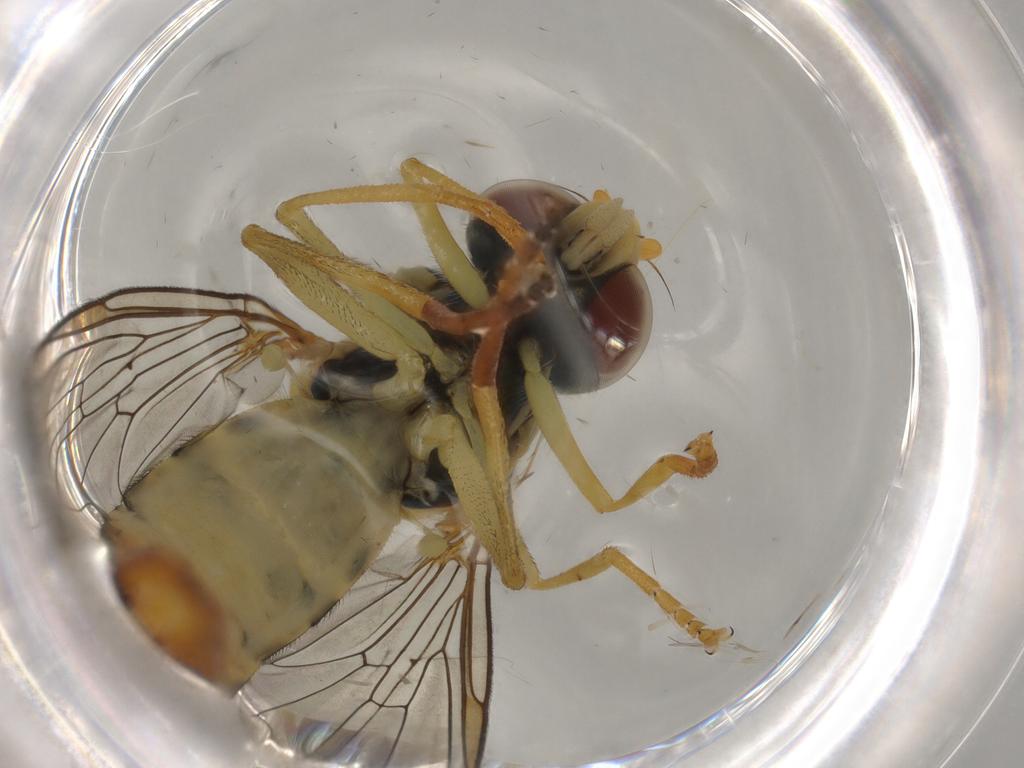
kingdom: Animalia
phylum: Arthropoda
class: Insecta
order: Diptera
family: Syrphidae
